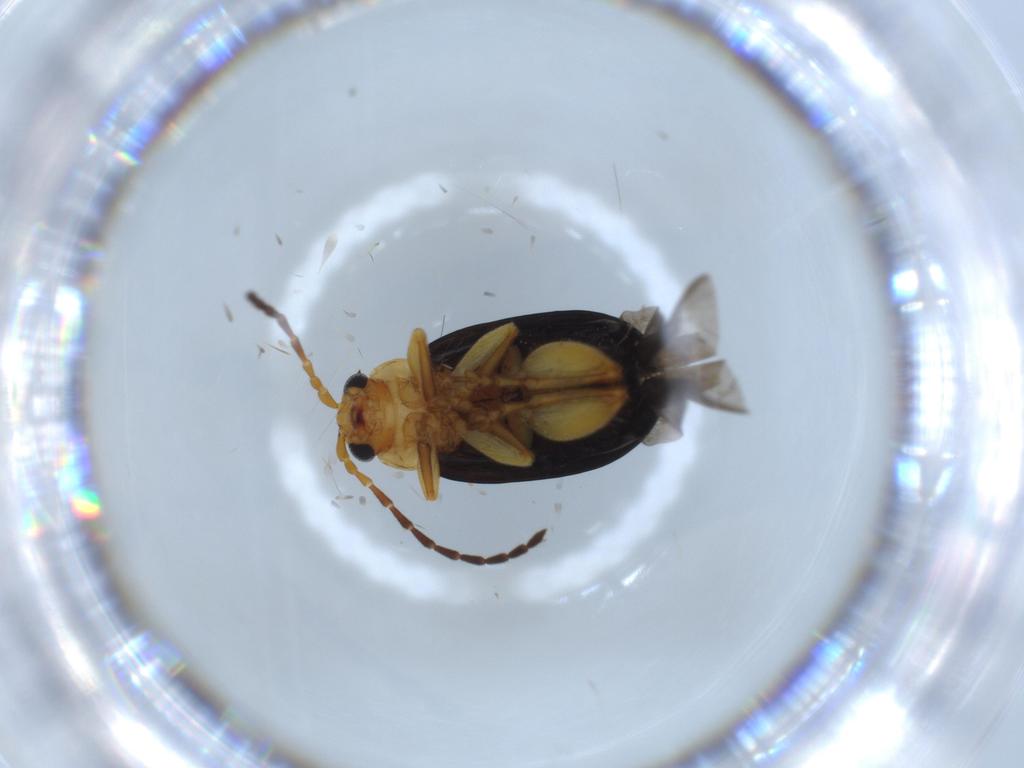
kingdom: Animalia
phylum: Arthropoda
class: Insecta
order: Coleoptera
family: Chrysomelidae
